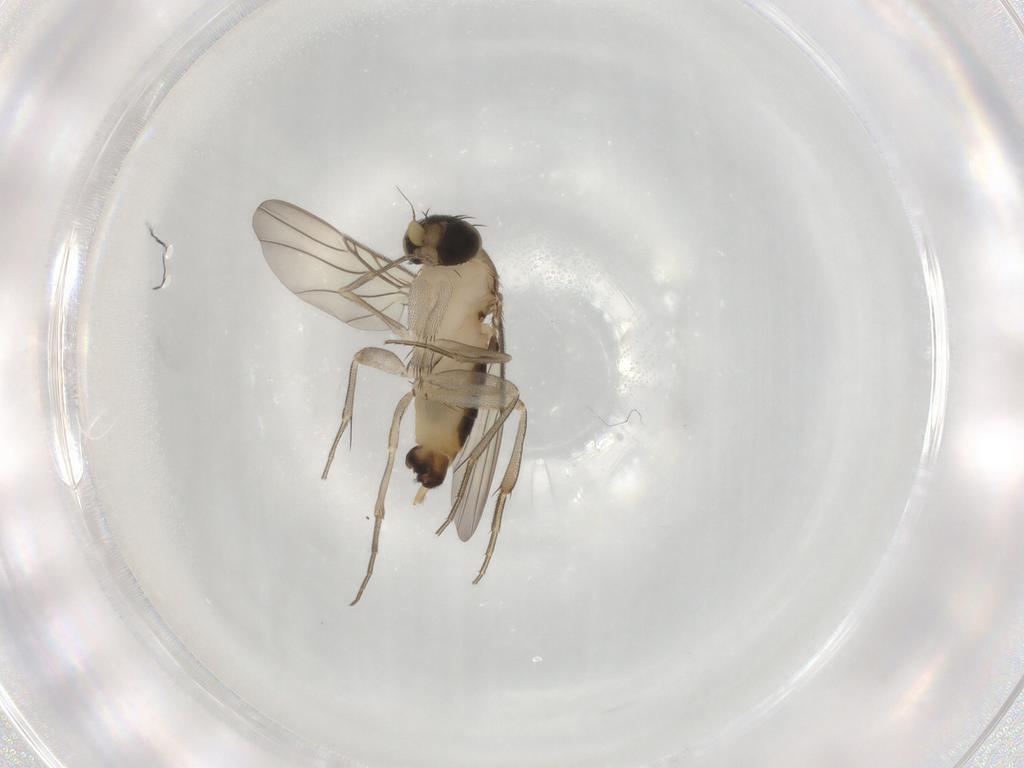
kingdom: Animalia
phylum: Arthropoda
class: Insecta
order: Diptera
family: Phoridae
